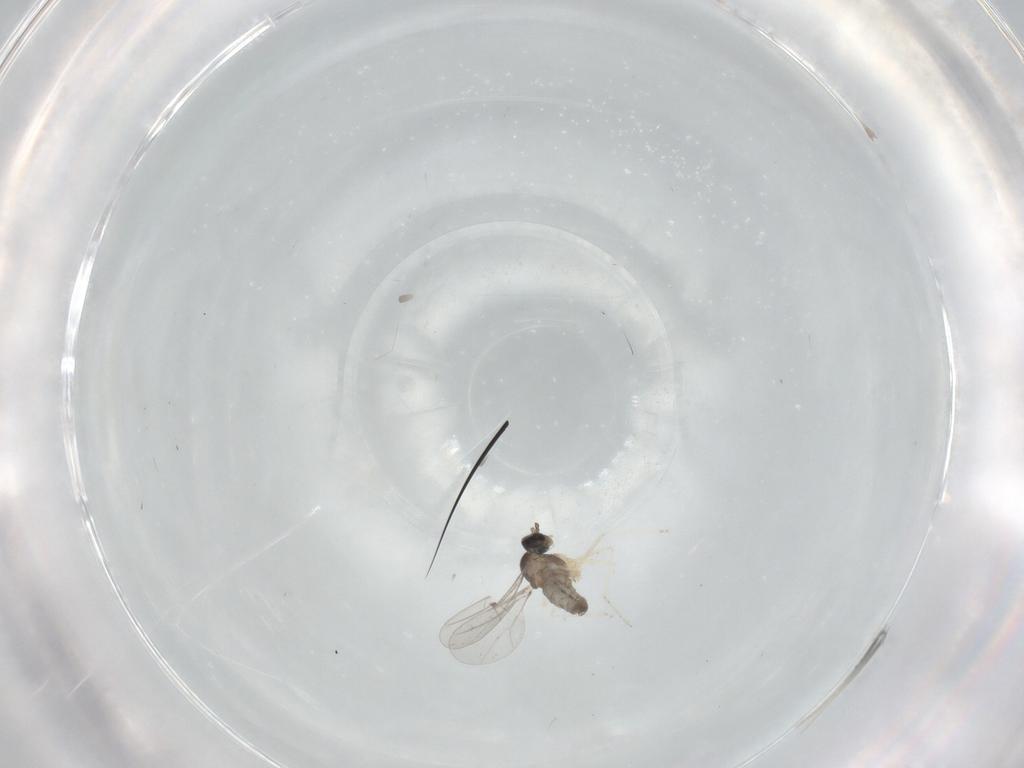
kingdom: Animalia
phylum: Arthropoda
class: Insecta
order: Diptera
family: Cecidomyiidae
